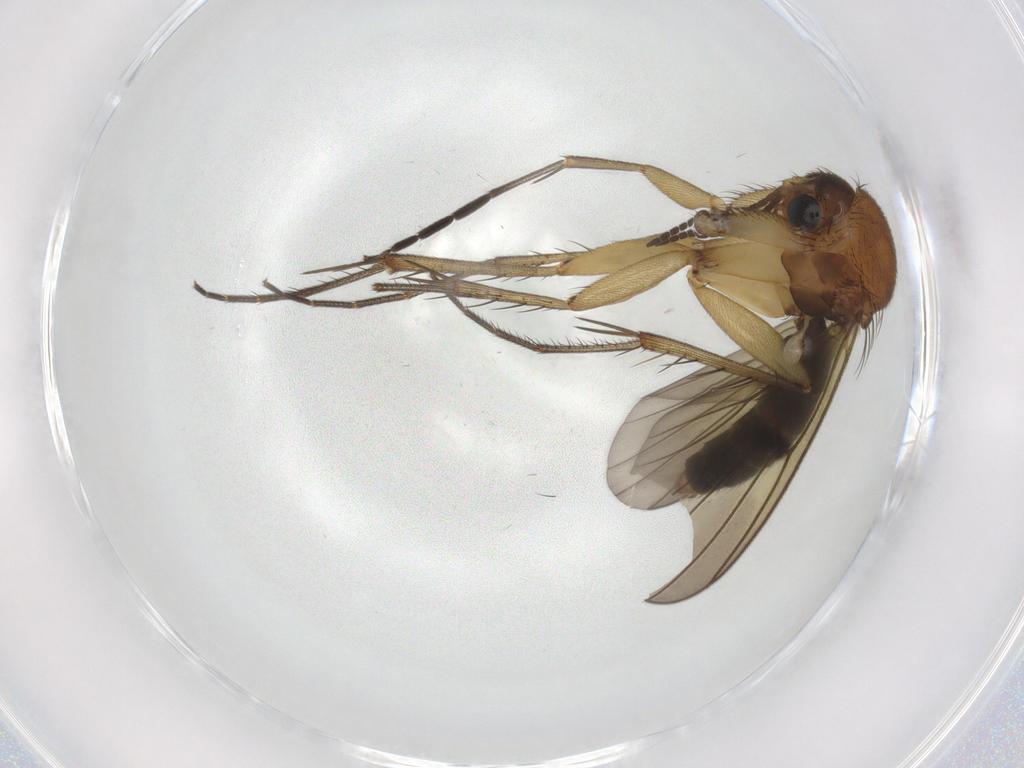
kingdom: Animalia
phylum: Arthropoda
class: Insecta
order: Diptera
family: Mycetophilidae
